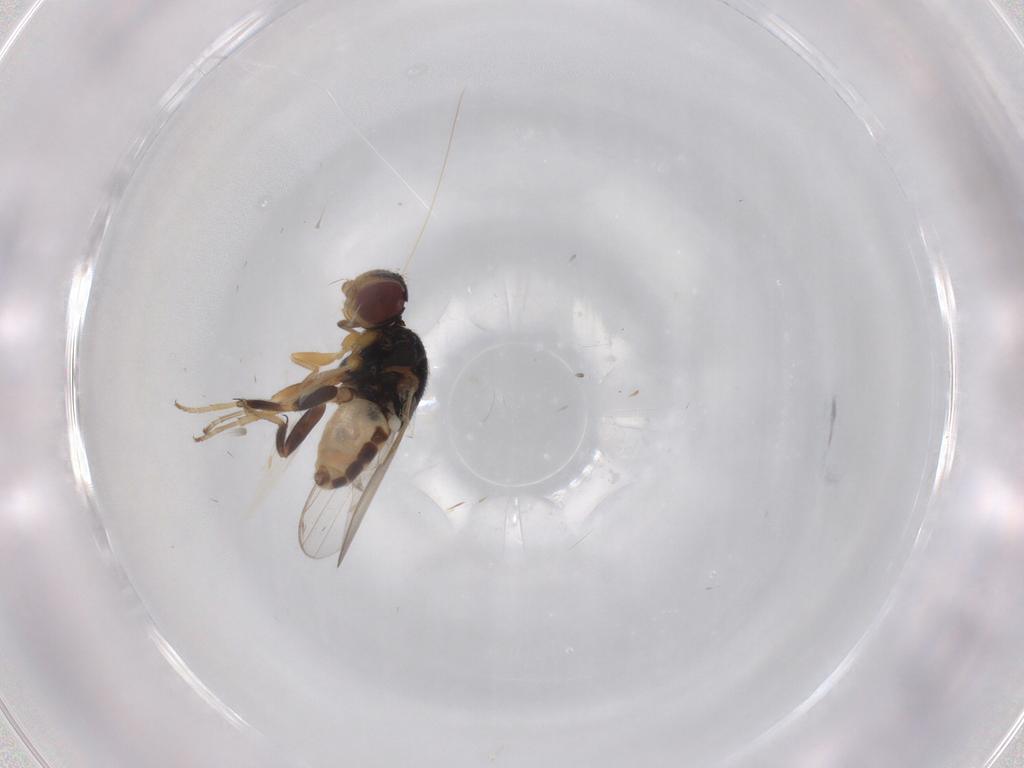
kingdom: Animalia
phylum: Arthropoda
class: Insecta
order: Diptera
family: Chloropidae
